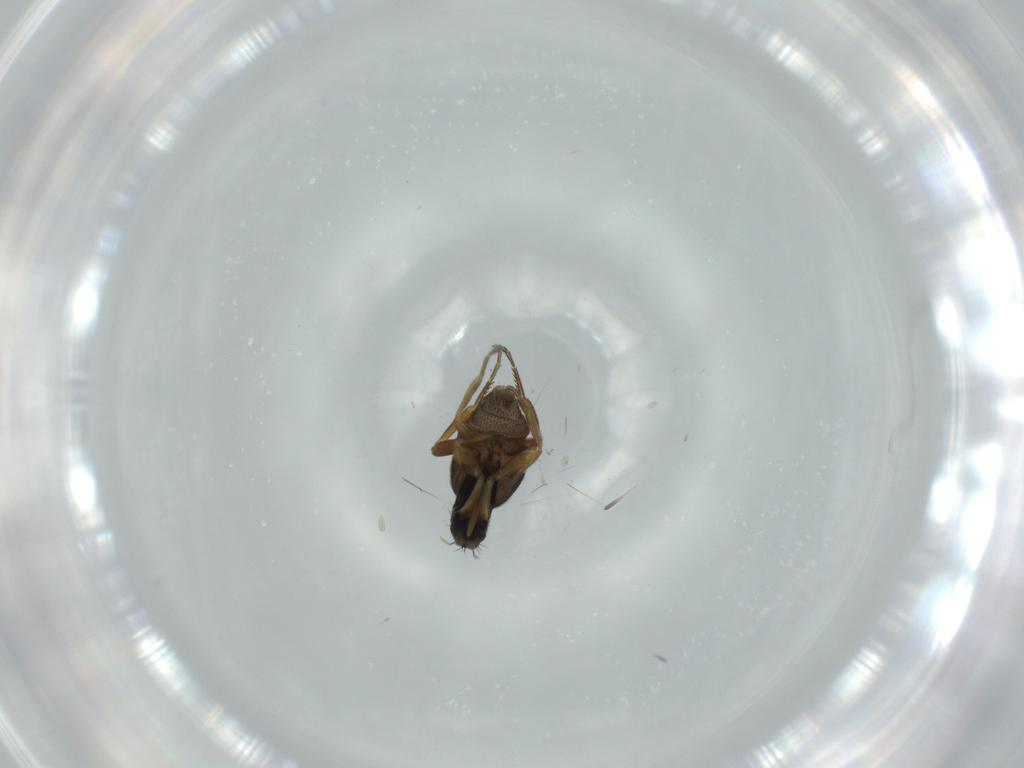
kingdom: Animalia
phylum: Arthropoda
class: Insecta
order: Diptera
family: Phoridae
